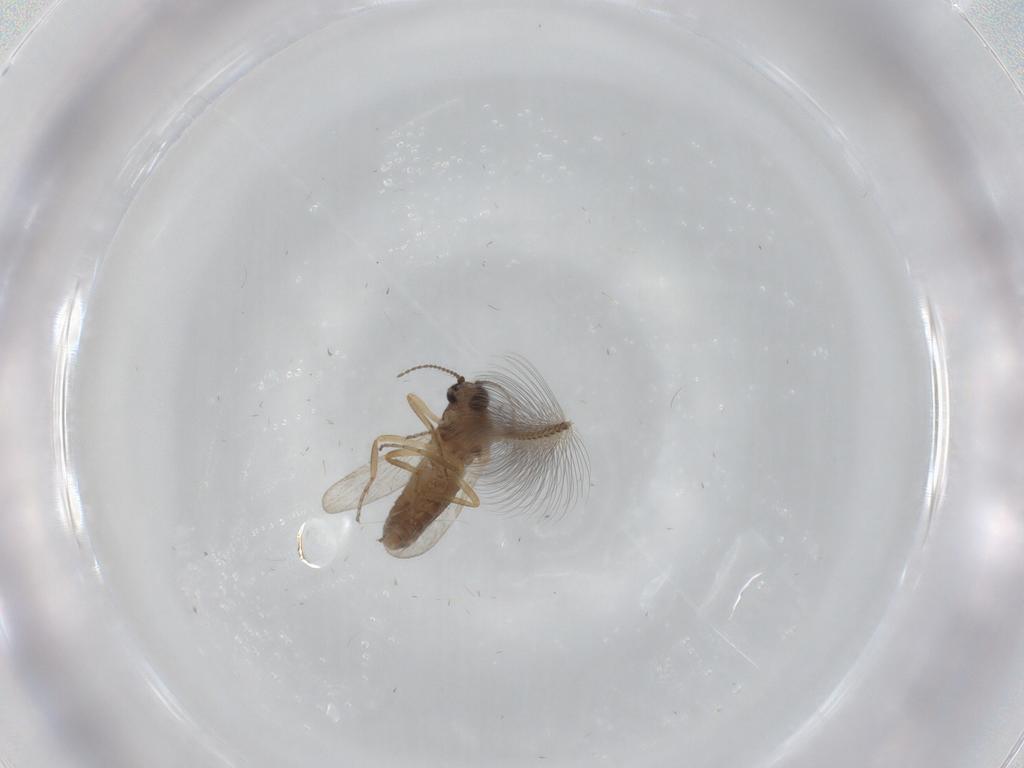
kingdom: Animalia
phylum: Arthropoda
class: Insecta
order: Diptera
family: Ceratopogonidae
